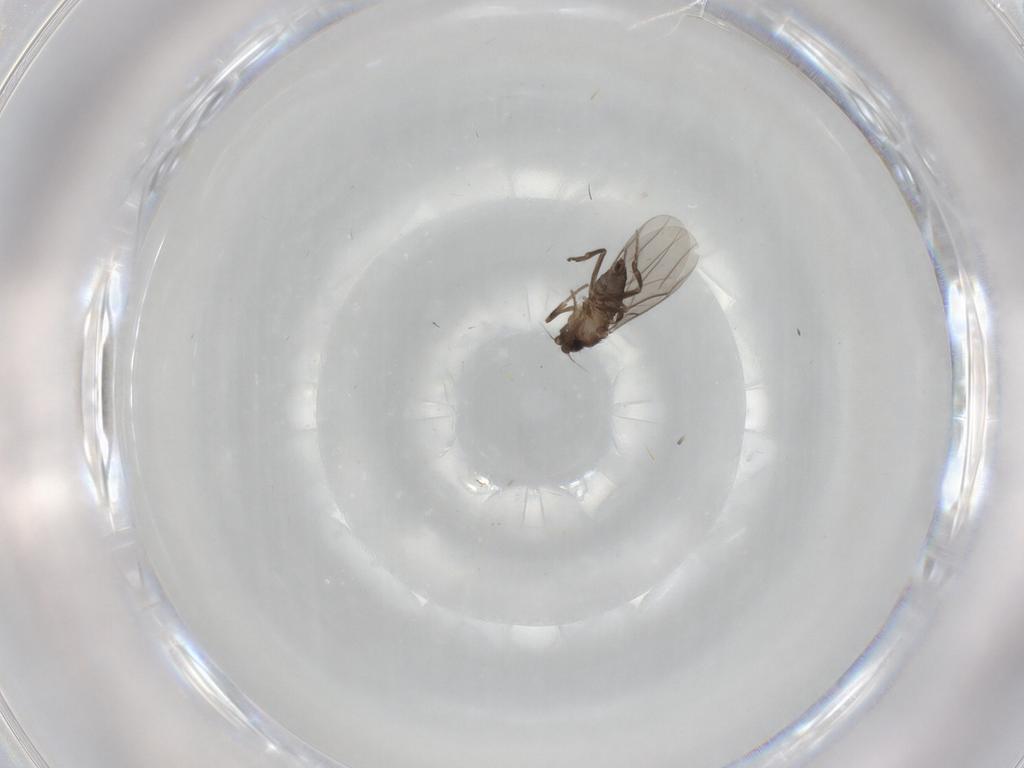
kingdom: Animalia
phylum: Arthropoda
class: Insecta
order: Diptera
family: Cecidomyiidae
